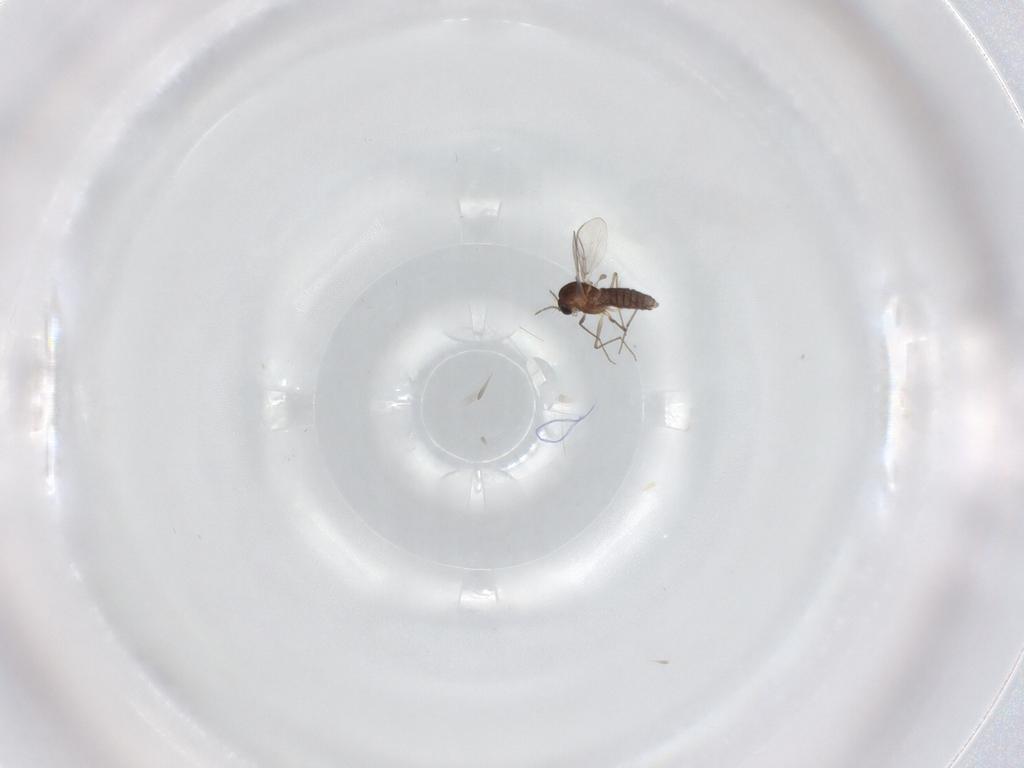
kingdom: Animalia
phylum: Arthropoda
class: Insecta
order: Diptera
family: Chironomidae
